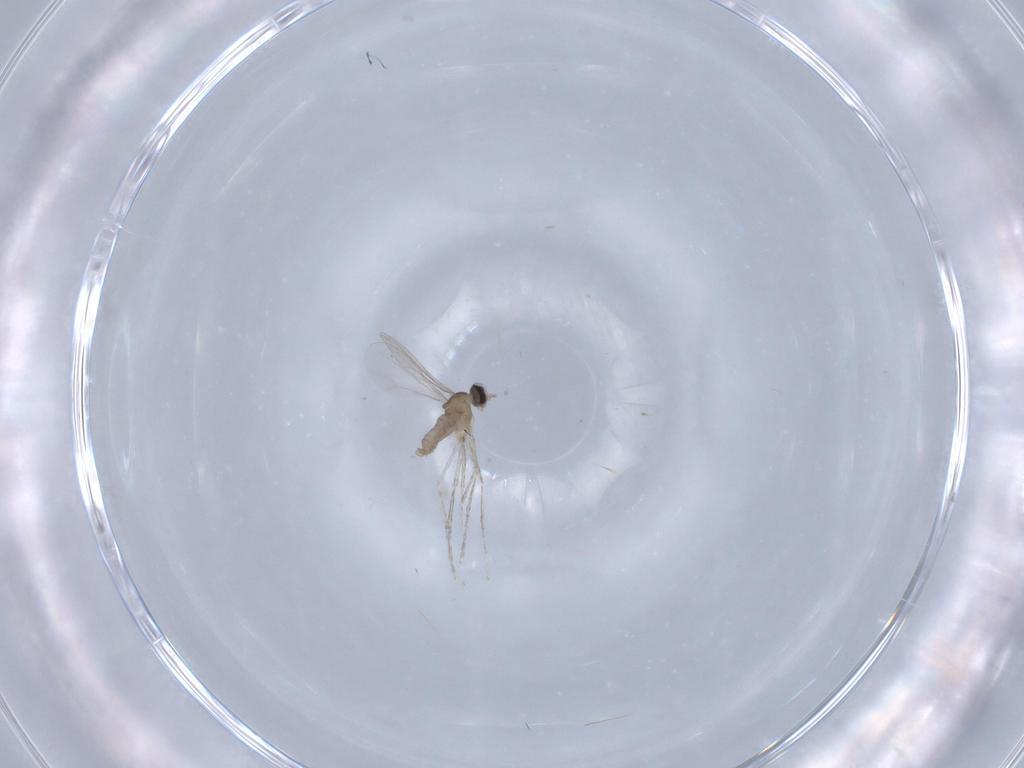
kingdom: Animalia
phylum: Arthropoda
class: Insecta
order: Diptera
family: Cecidomyiidae
